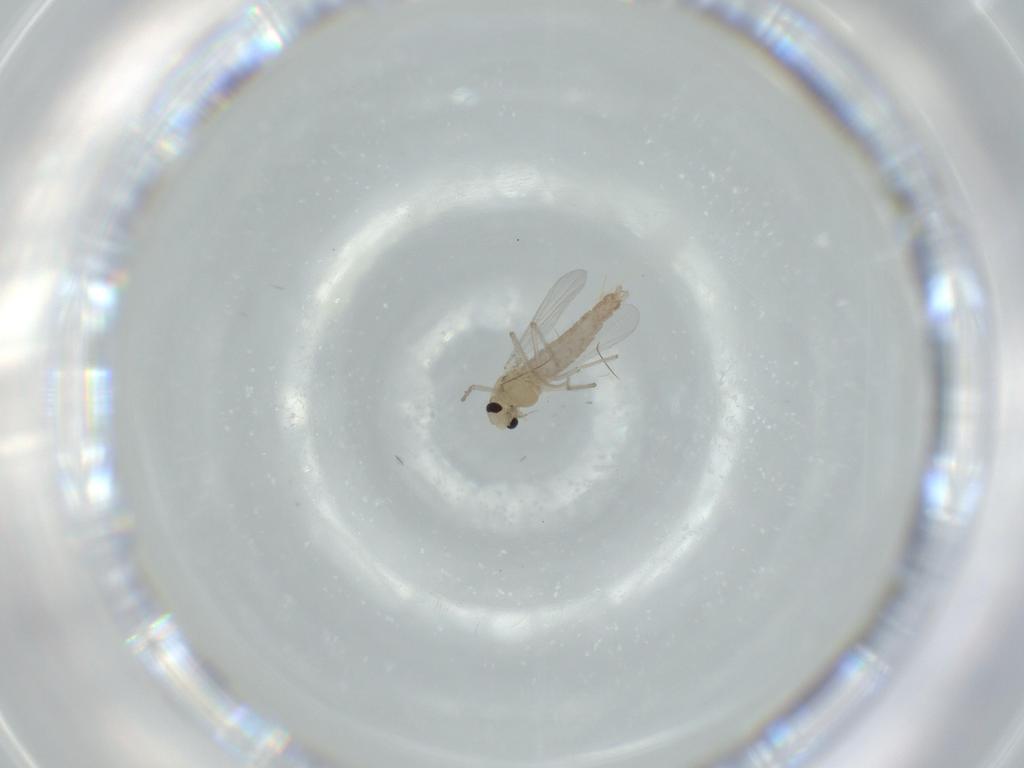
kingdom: Animalia
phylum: Arthropoda
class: Insecta
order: Diptera
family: Chironomidae
